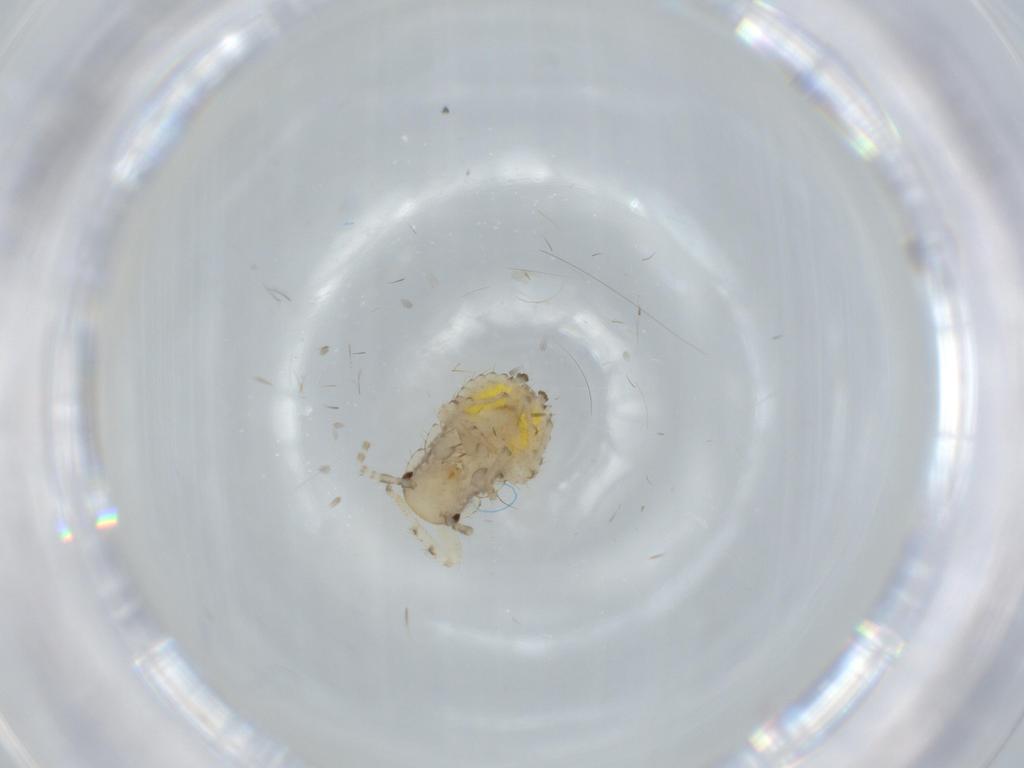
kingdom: Animalia
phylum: Arthropoda
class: Insecta
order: Blattodea
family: Ectobiidae
